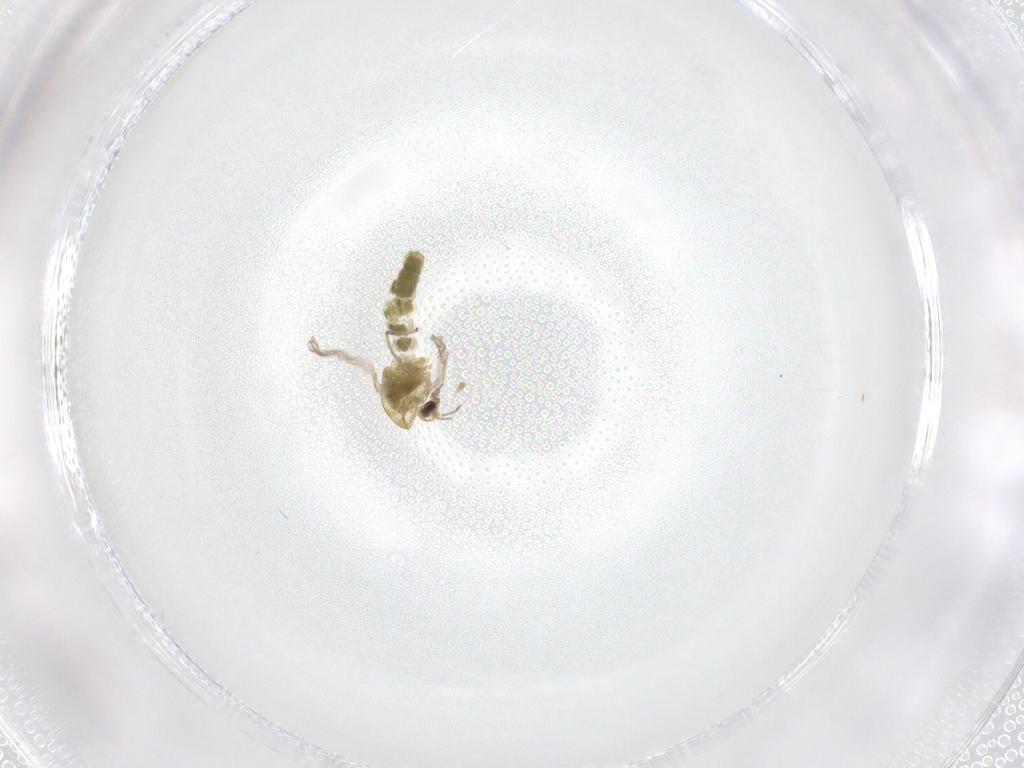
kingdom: Animalia
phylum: Arthropoda
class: Insecta
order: Diptera
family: Chironomidae
